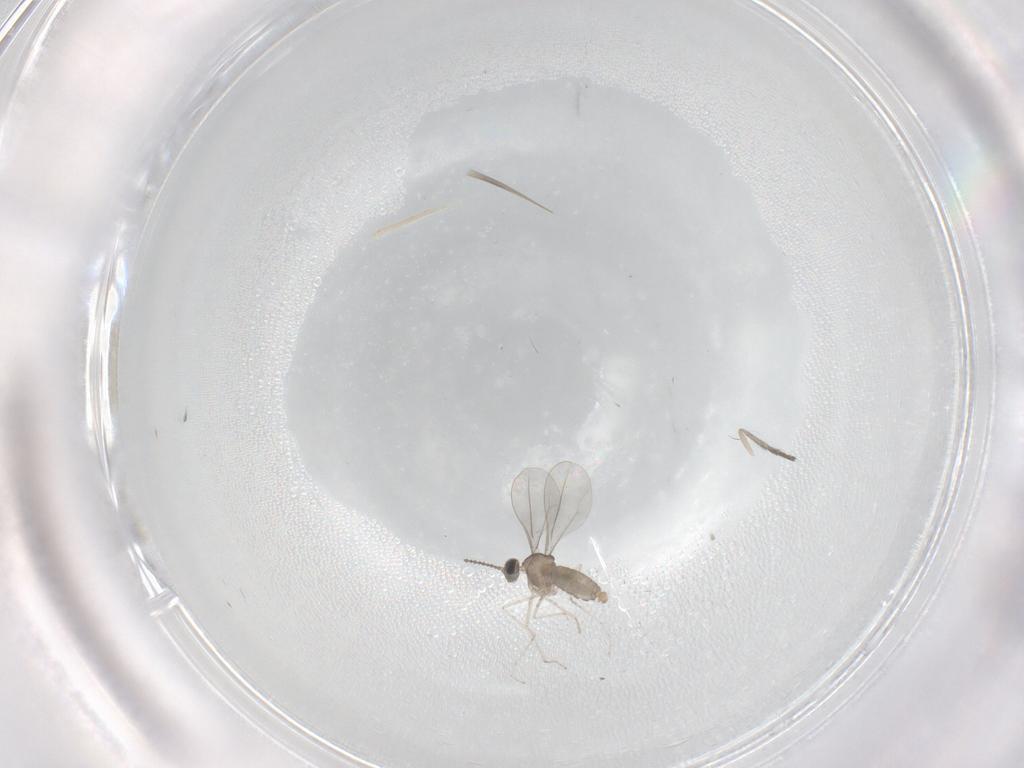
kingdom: Animalia
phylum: Arthropoda
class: Insecta
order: Diptera
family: Cecidomyiidae
